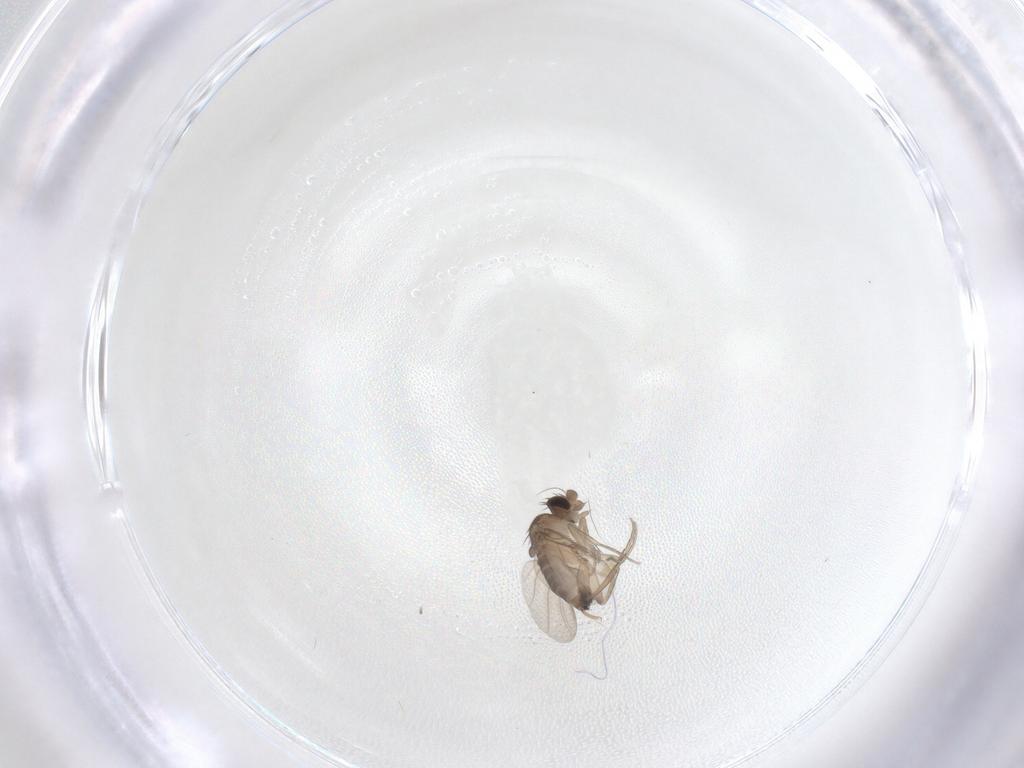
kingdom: Animalia
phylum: Arthropoda
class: Insecta
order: Diptera
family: Phoridae
